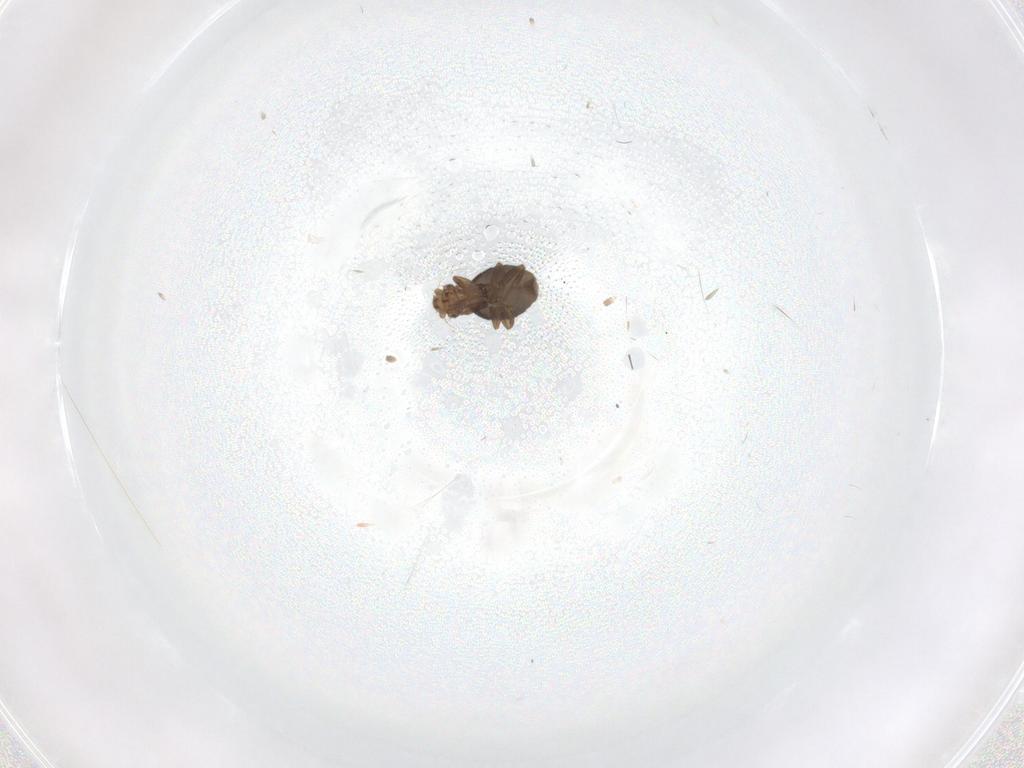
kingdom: Animalia
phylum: Arthropoda
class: Insecta
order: Diptera
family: Phoridae
